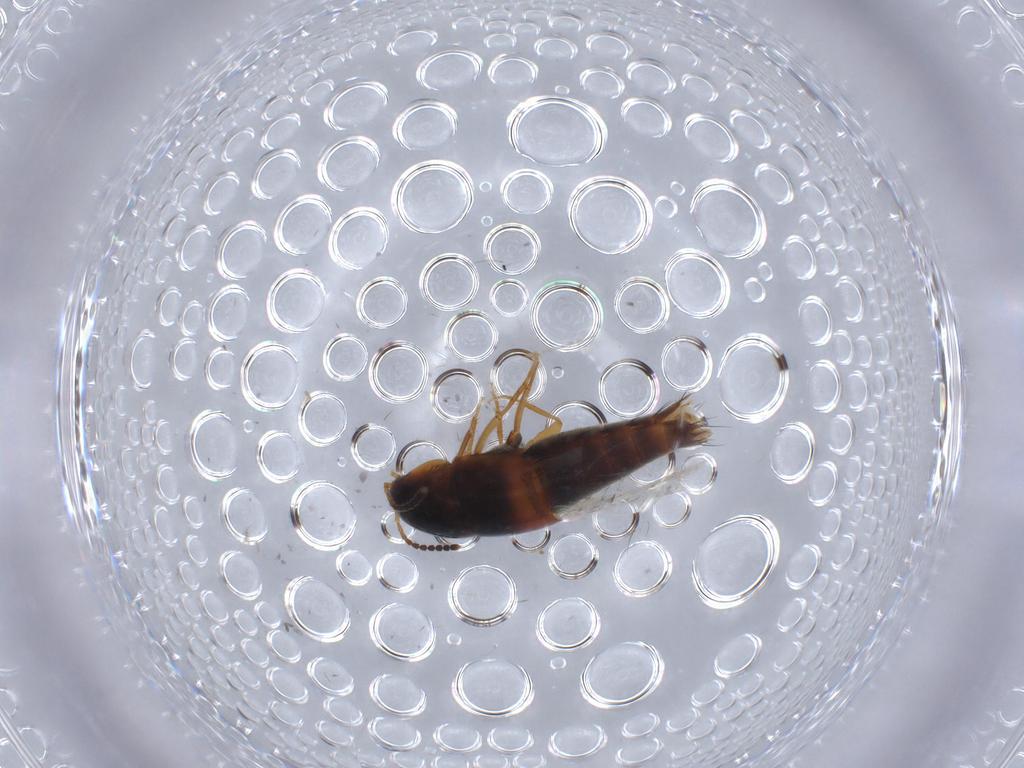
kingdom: Animalia
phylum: Arthropoda
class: Insecta
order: Coleoptera
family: Staphylinidae
